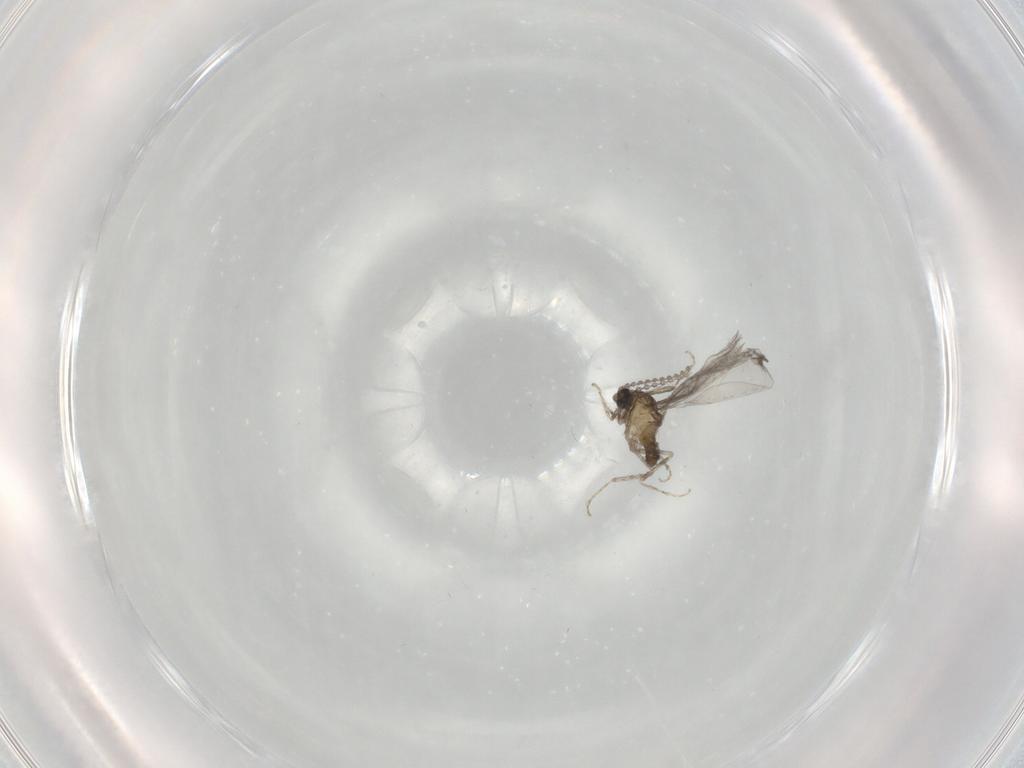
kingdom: Animalia
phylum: Arthropoda
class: Insecta
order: Diptera
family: Cecidomyiidae
